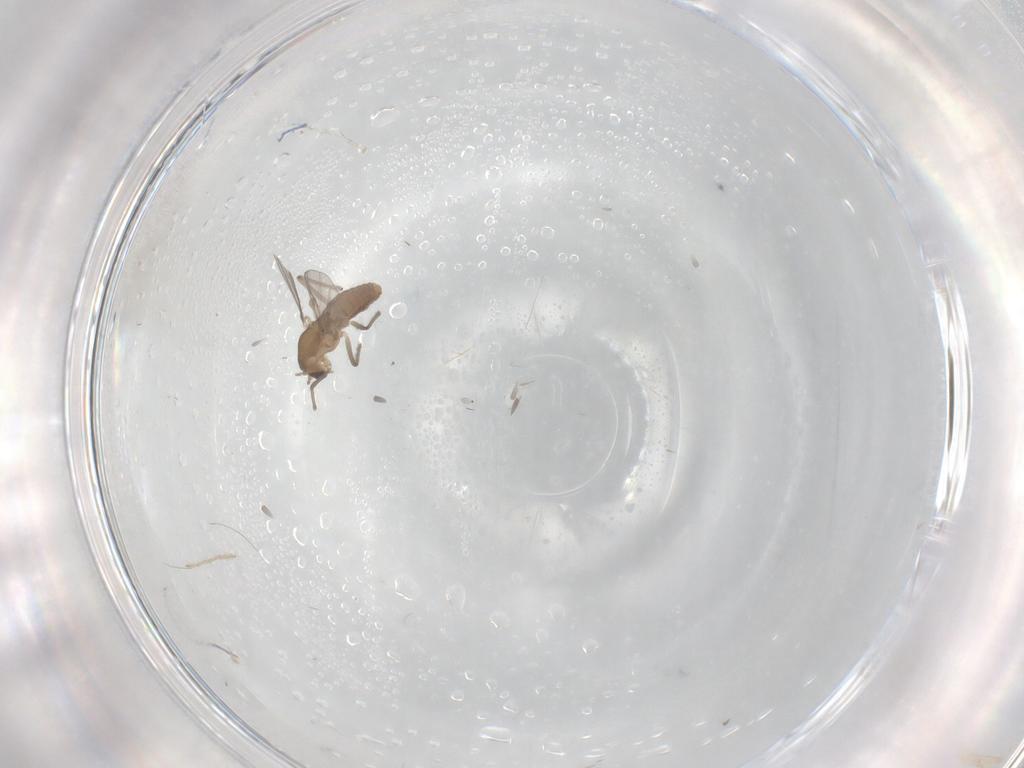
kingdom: Animalia
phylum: Arthropoda
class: Insecta
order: Diptera
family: Chironomidae
